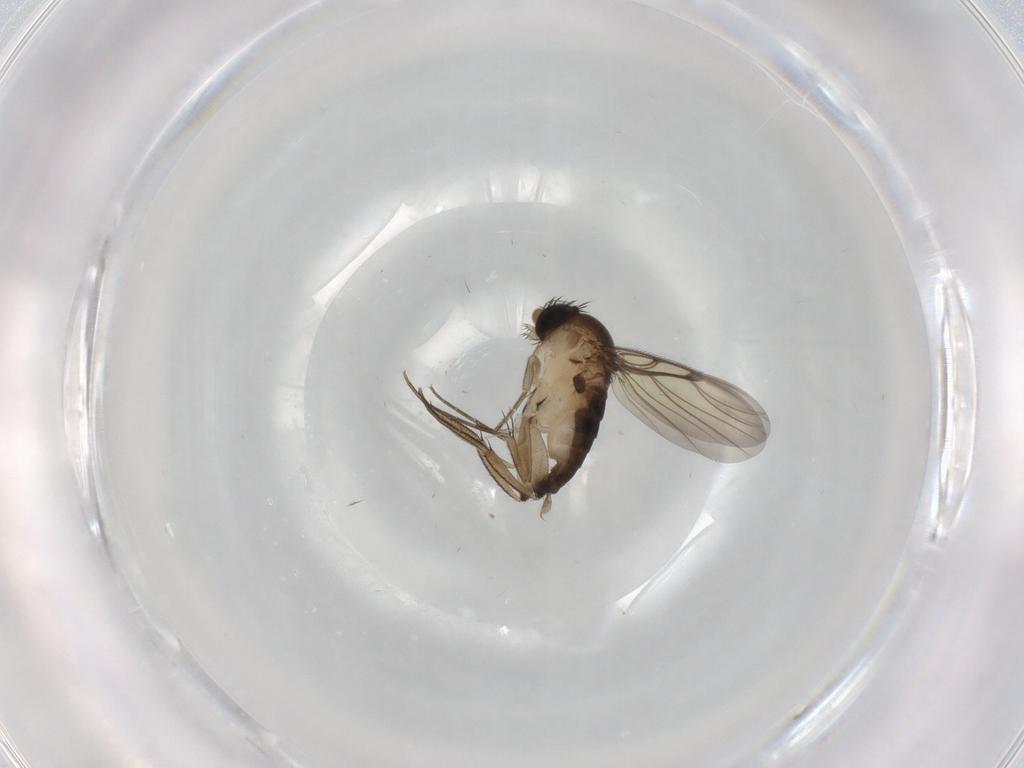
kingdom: Animalia
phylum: Arthropoda
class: Insecta
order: Diptera
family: Phoridae
